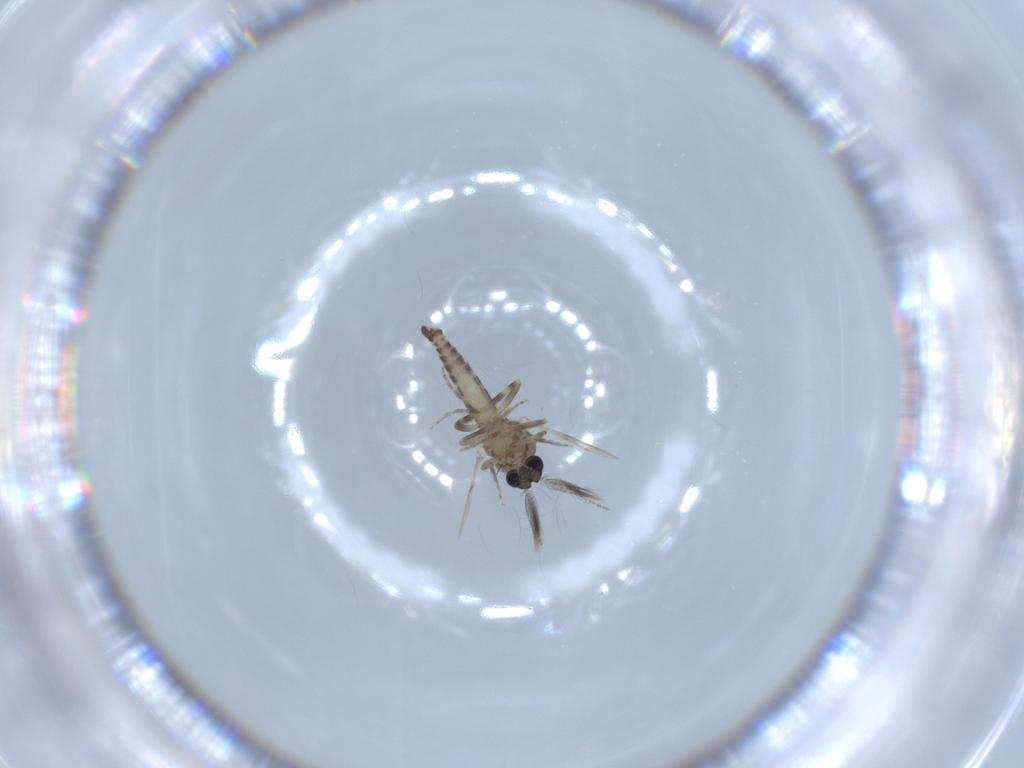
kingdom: Animalia
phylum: Arthropoda
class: Insecta
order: Diptera
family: Ceratopogonidae
